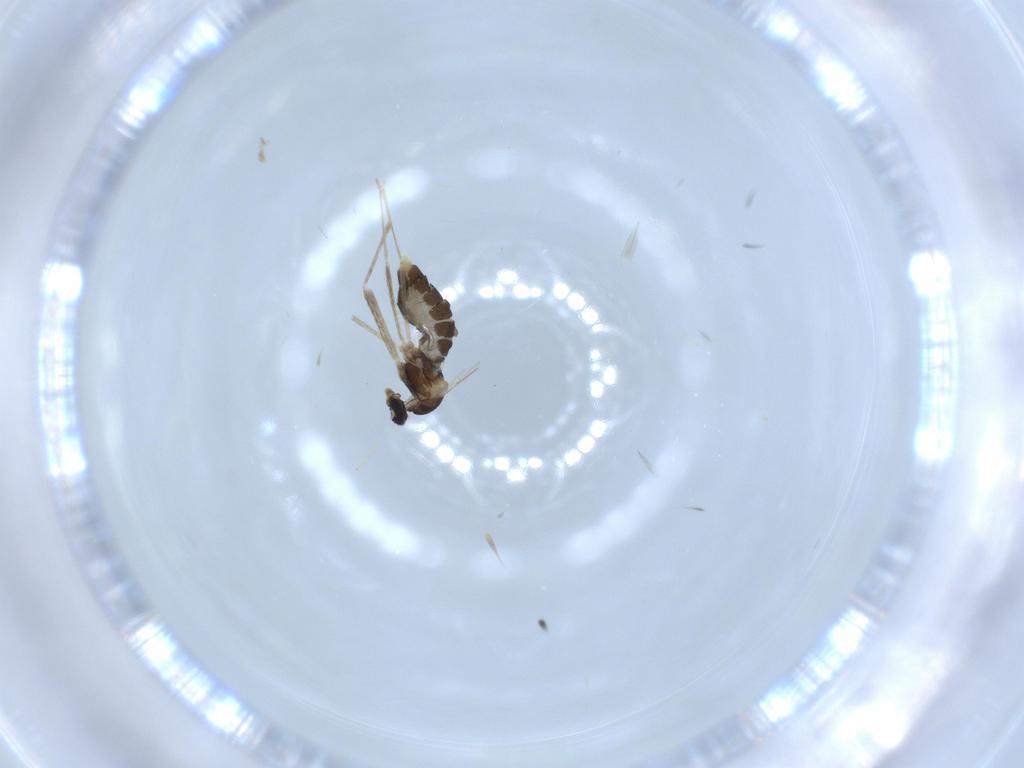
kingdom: Animalia
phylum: Arthropoda
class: Insecta
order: Diptera
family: Cecidomyiidae
